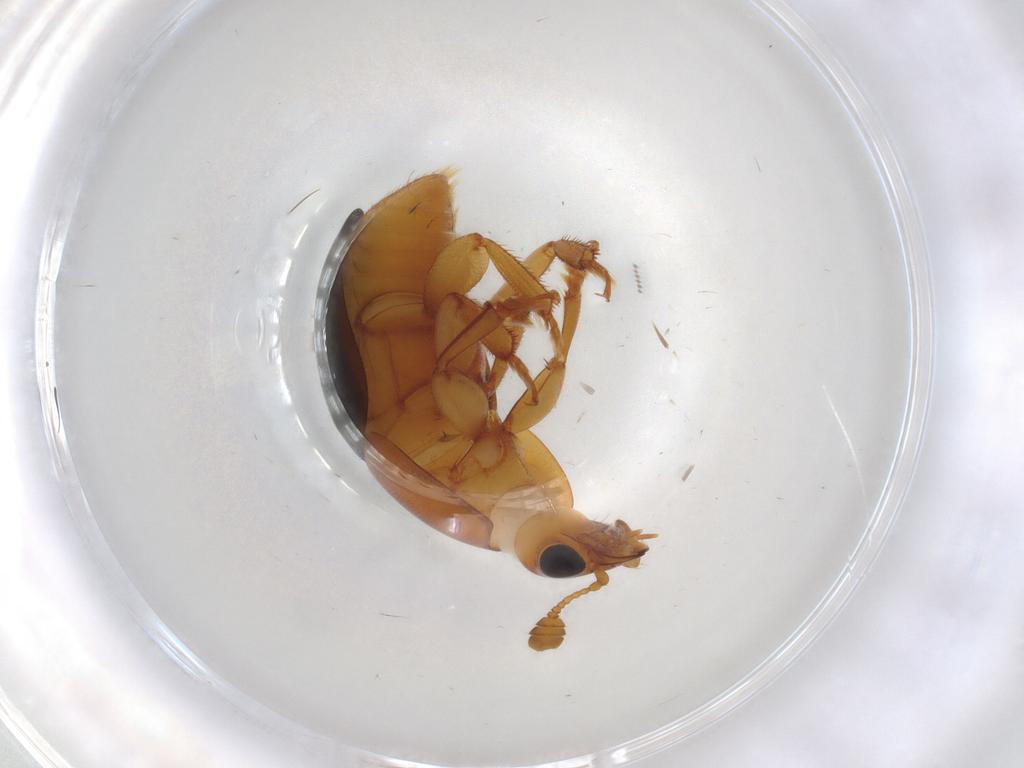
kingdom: Animalia
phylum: Arthropoda
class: Insecta
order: Coleoptera
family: Nitidulidae
